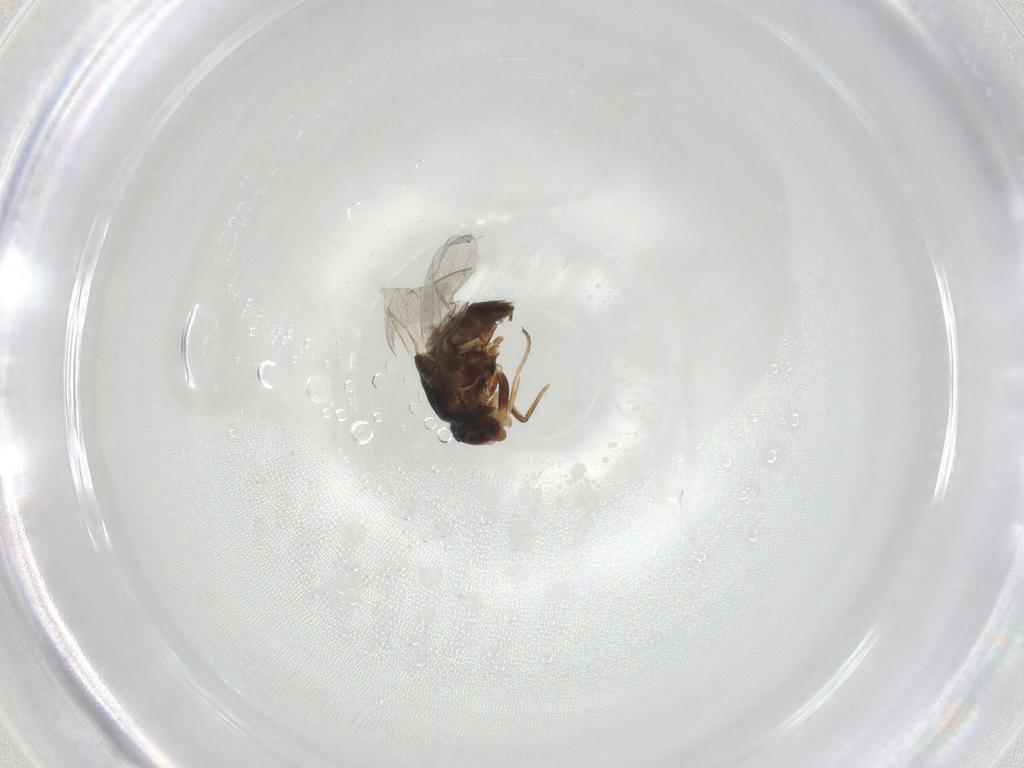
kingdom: Animalia
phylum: Arthropoda
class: Insecta
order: Diptera
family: Chloropidae
